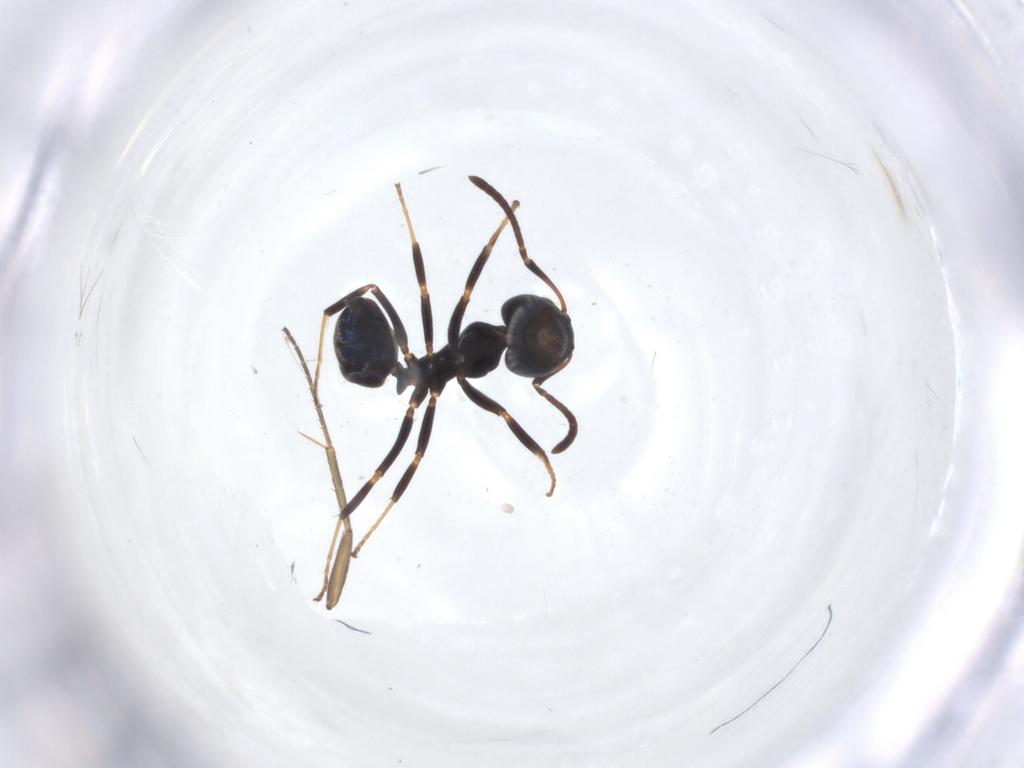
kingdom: Animalia
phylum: Arthropoda
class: Insecta
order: Hymenoptera
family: Formicidae
